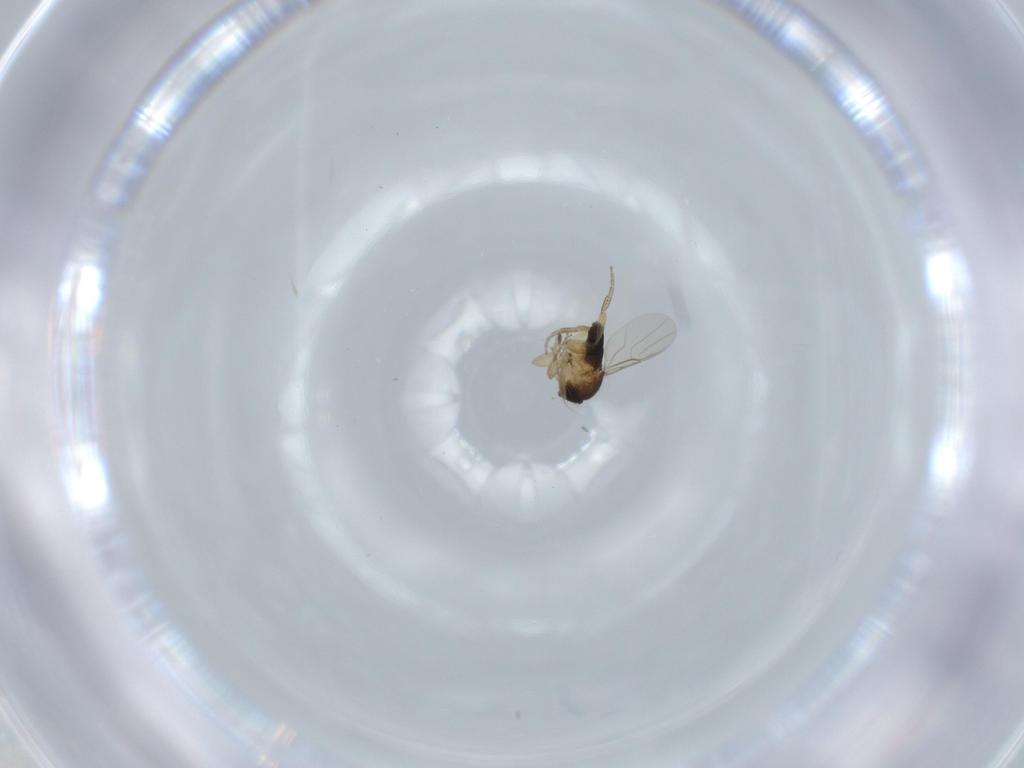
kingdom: Animalia
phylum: Arthropoda
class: Insecta
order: Diptera
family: Phoridae
